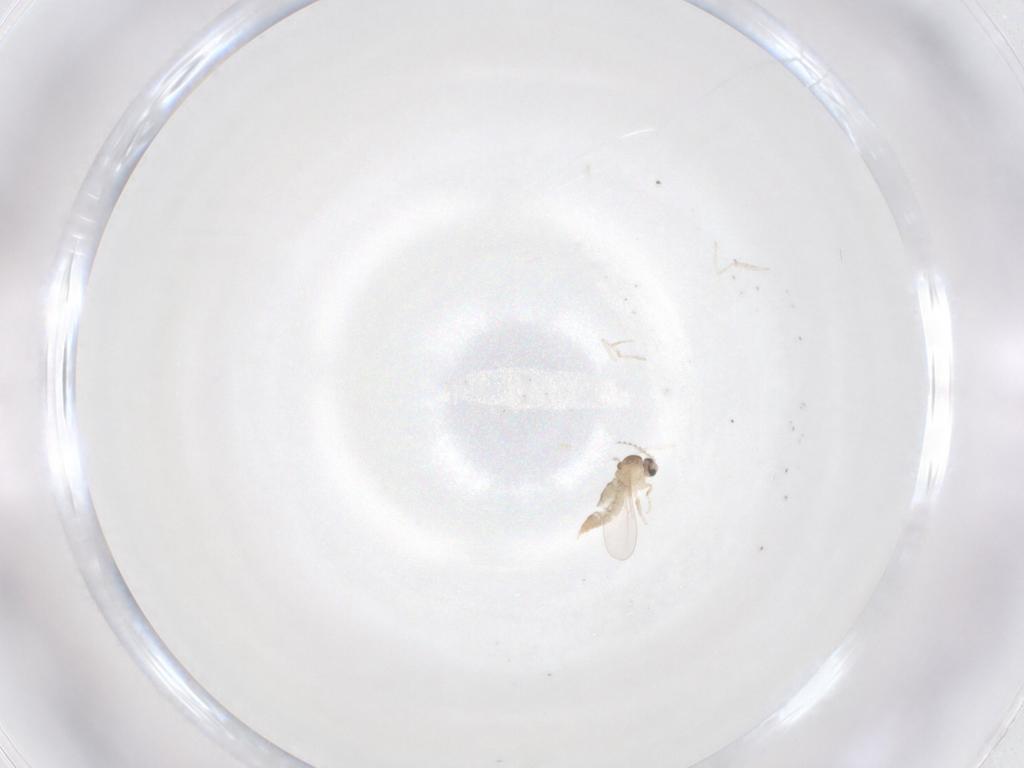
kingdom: Animalia
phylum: Arthropoda
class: Insecta
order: Diptera
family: Cecidomyiidae
